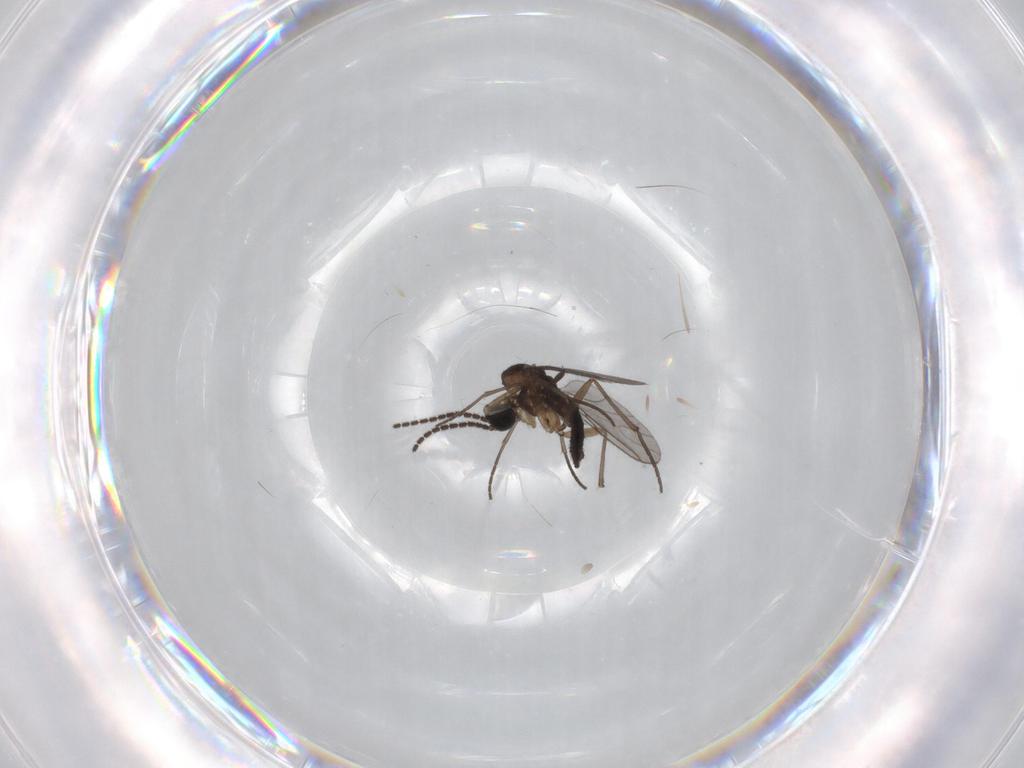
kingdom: Animalia
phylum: Arthropoda
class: Insecta
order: Diptera
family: Sciaridae
